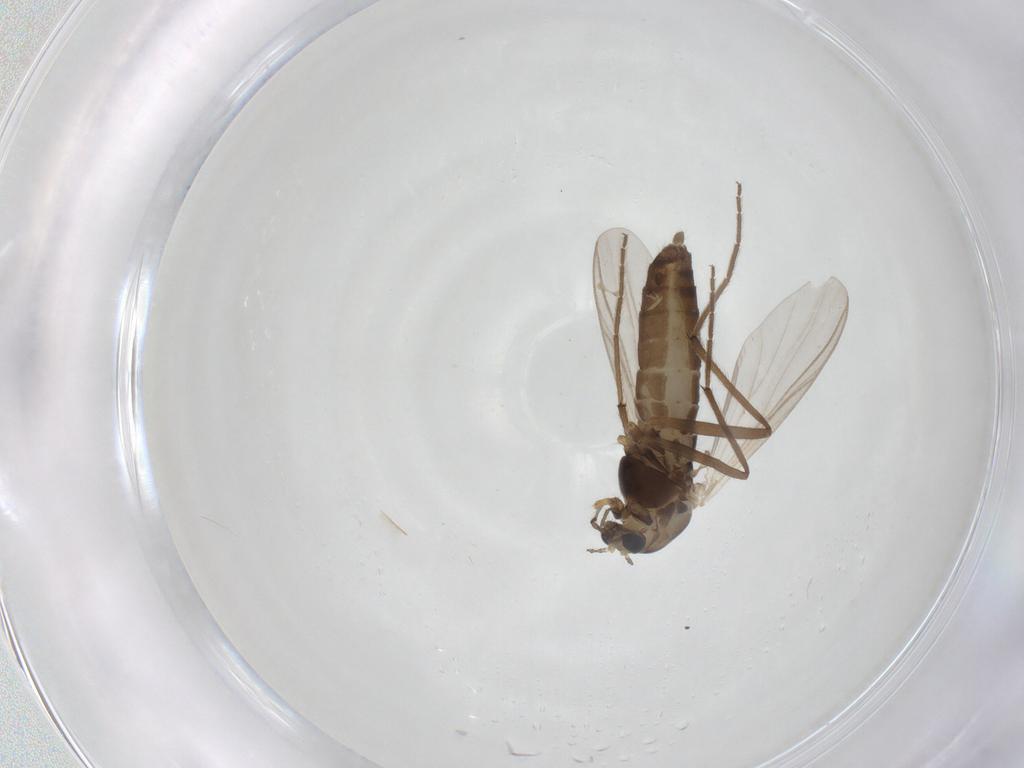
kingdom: Animalia
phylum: Arthropoda
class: Insecta
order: Diptera
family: Chironomidae
